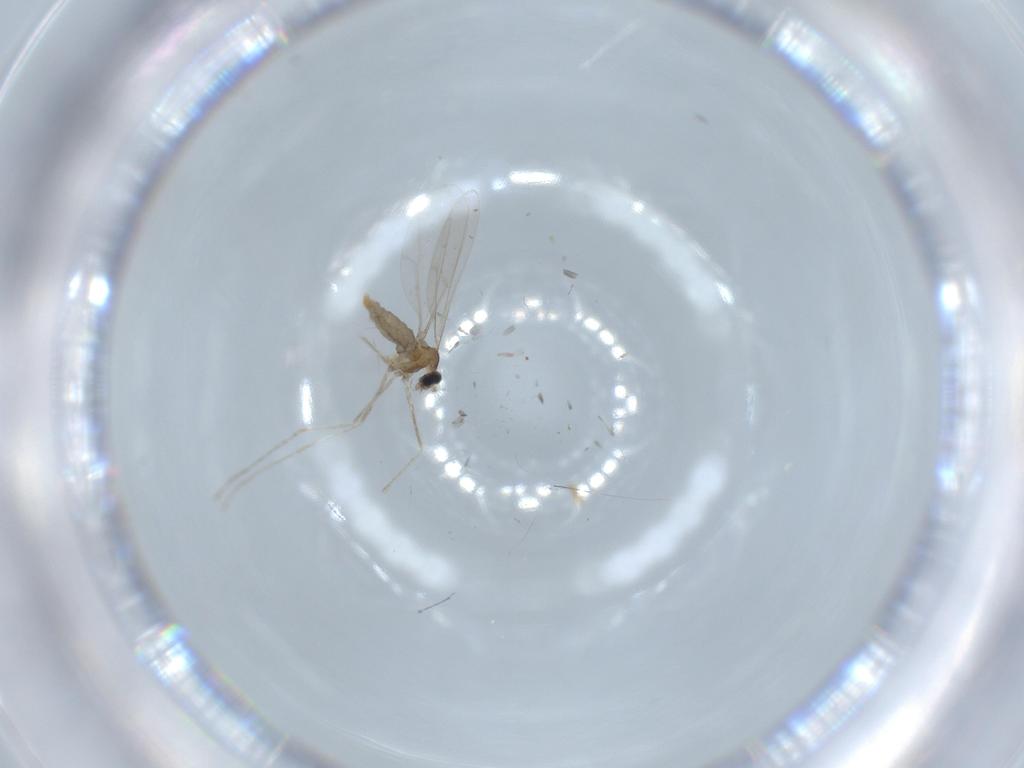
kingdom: Animalia
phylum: Arthropoda
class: Insecta
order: Diptera
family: Cecidomyiidae
